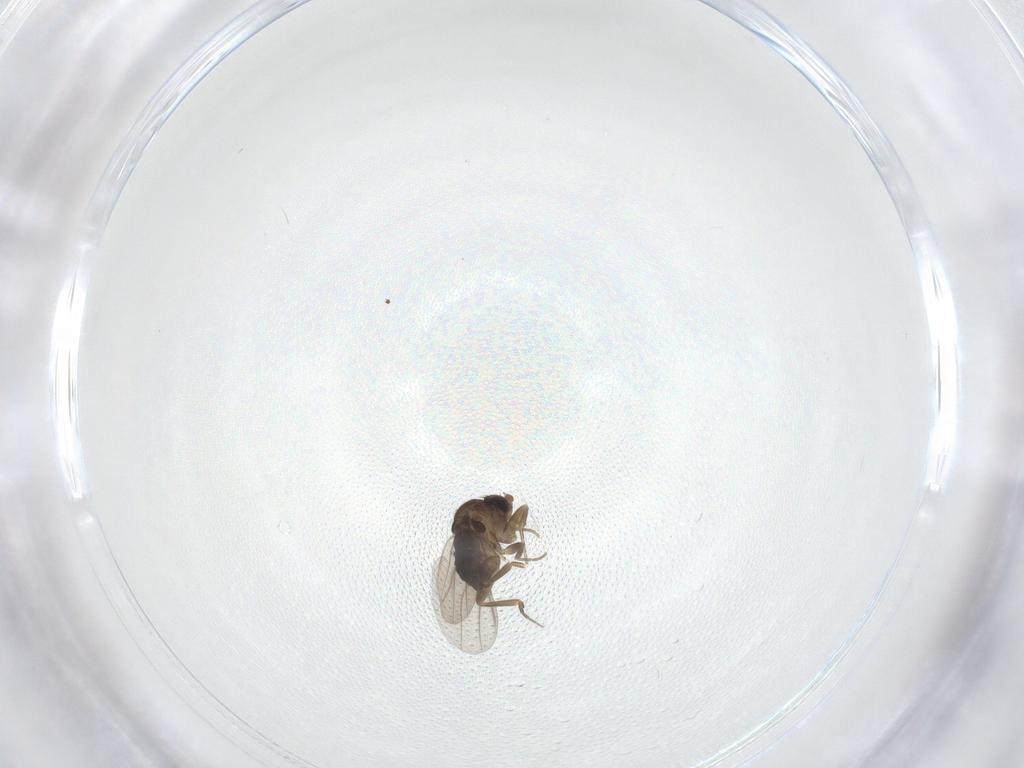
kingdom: Animalia
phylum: Arthropoda
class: Insecta
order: Diptera
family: Phoridae
